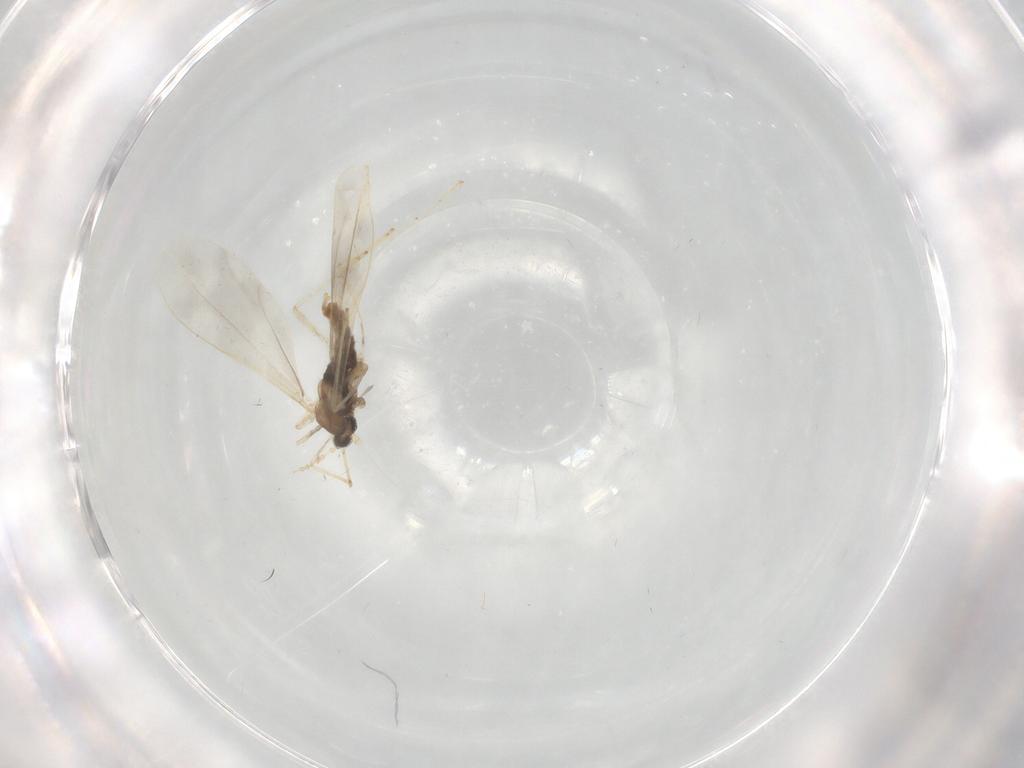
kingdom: Animalia
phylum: Arthropoda
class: Insecta
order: Diptera
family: Cecidomyiidae
